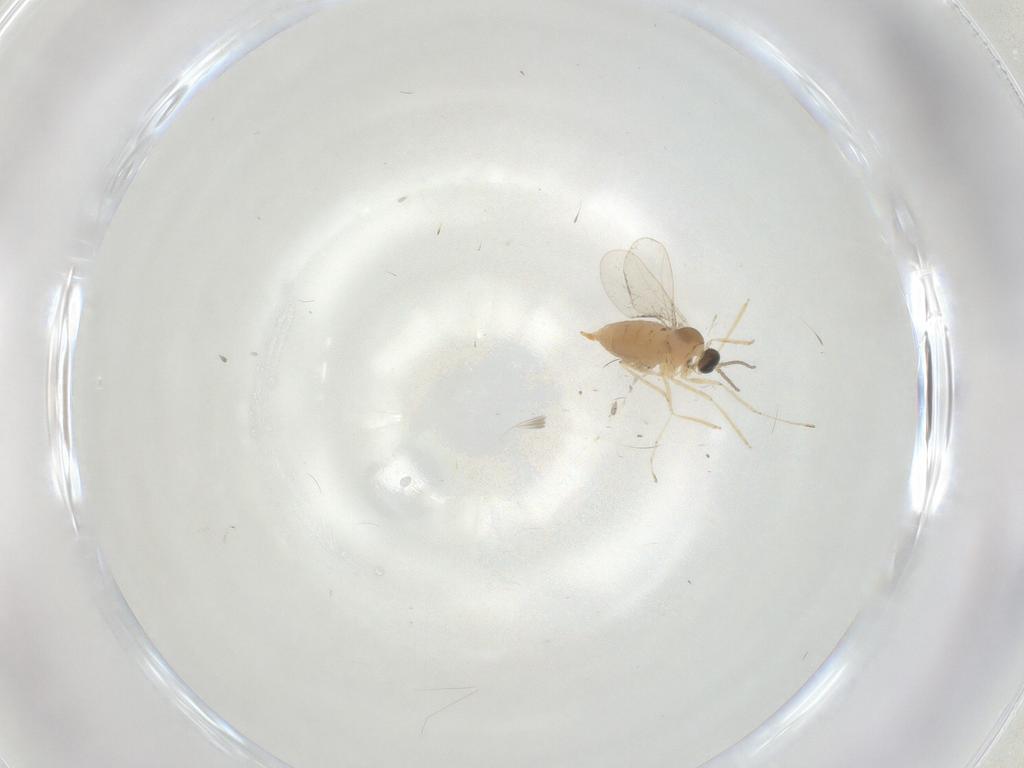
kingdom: Animalia
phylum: Arthropoda
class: Insecta
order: Diptera
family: Cecidomyiidae
